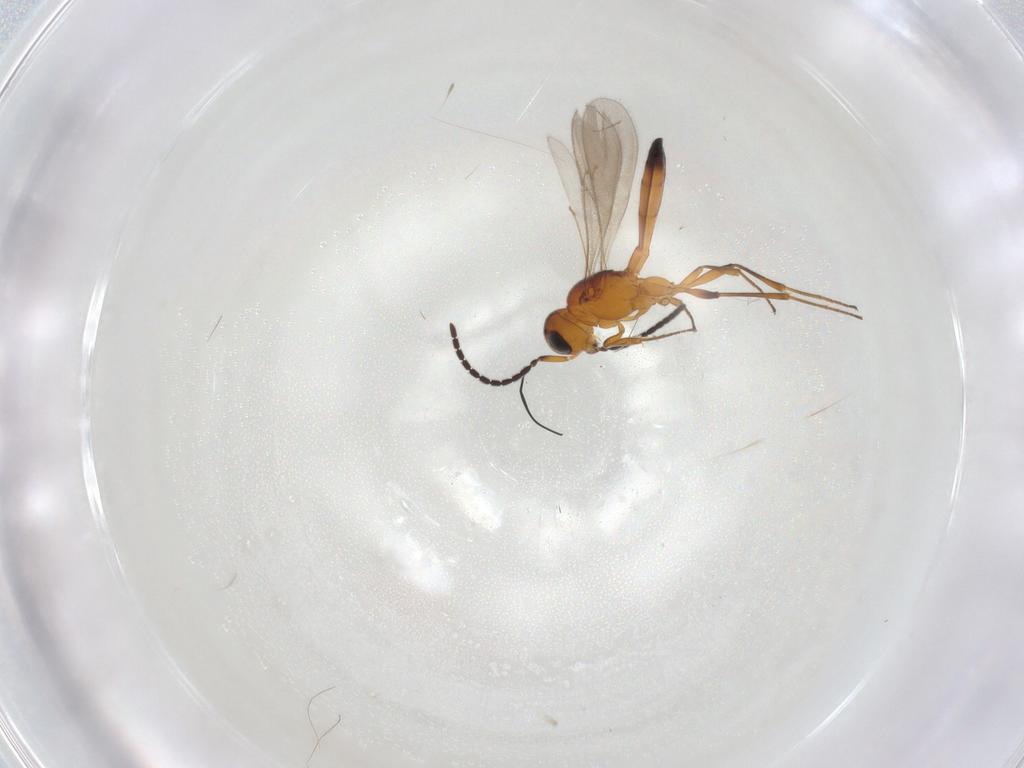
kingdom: Animalia
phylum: Arthropoda
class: Insecta
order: Hymenoptera
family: Scelionidae
